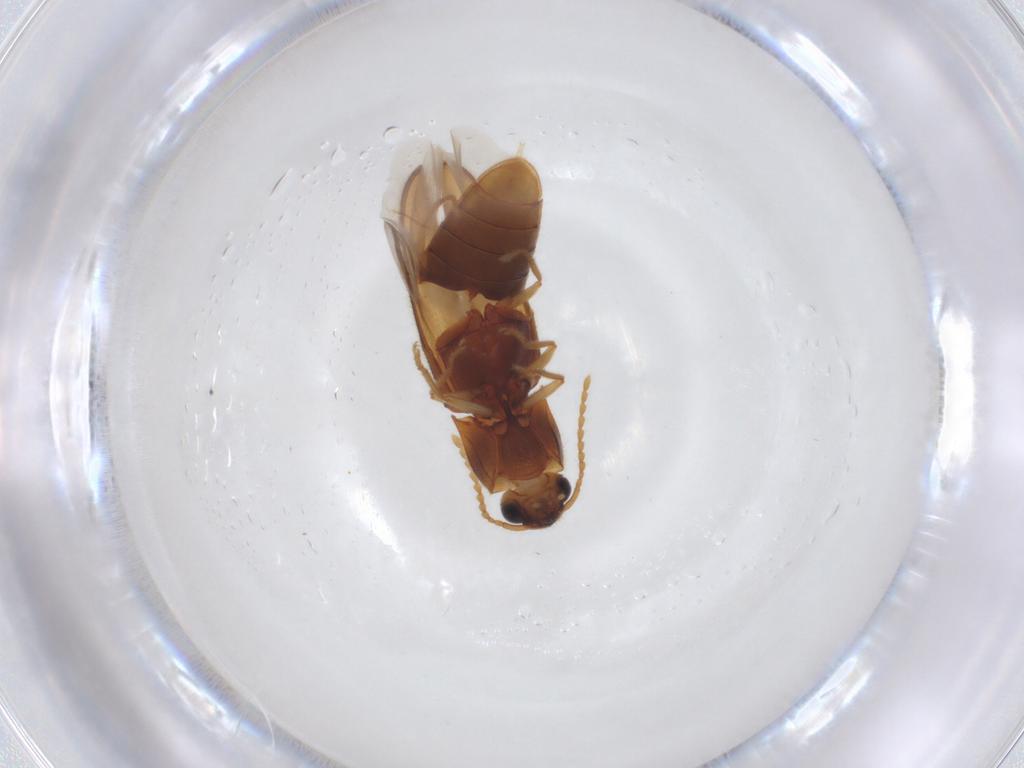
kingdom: Animalia
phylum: Arthropoda
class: Insecta
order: Coleoptera
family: Elateridae
